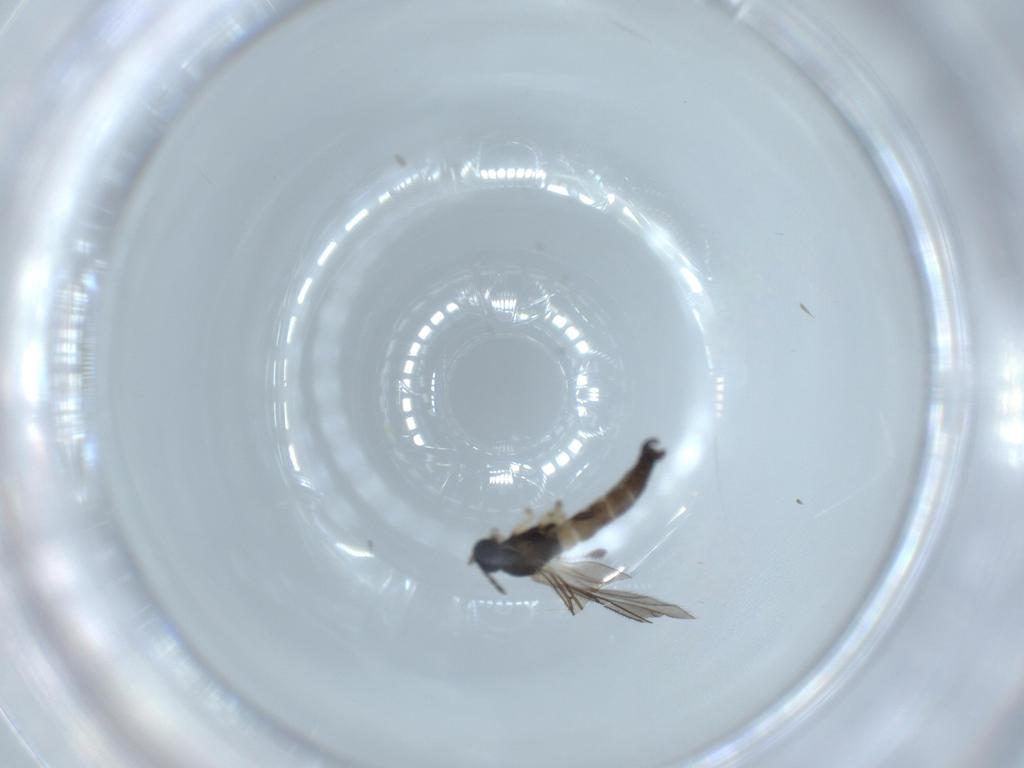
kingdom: Animalia
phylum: Arthropoda
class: Insecta
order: Diptera
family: Sciaridae
